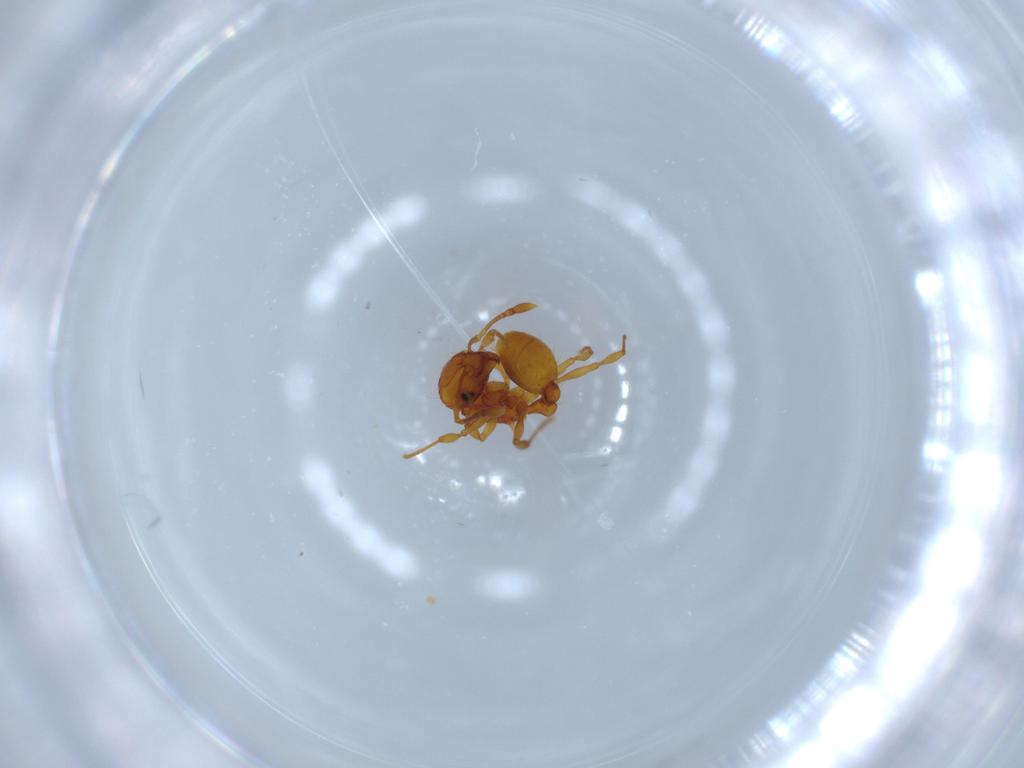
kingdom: Animalia
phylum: Arthropoda
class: Insecta
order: Hymenoptera
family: Formicidae
